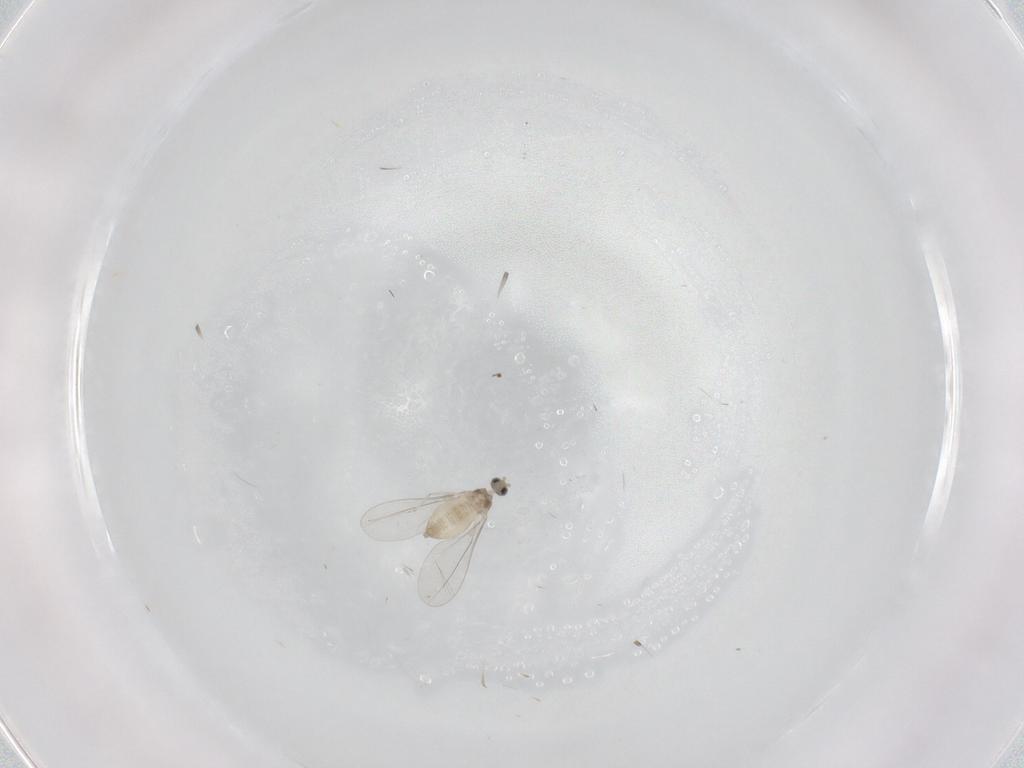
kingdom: Animalia
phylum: Arthropoda
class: Insecta
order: Diptera
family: Cecidomyiidae
